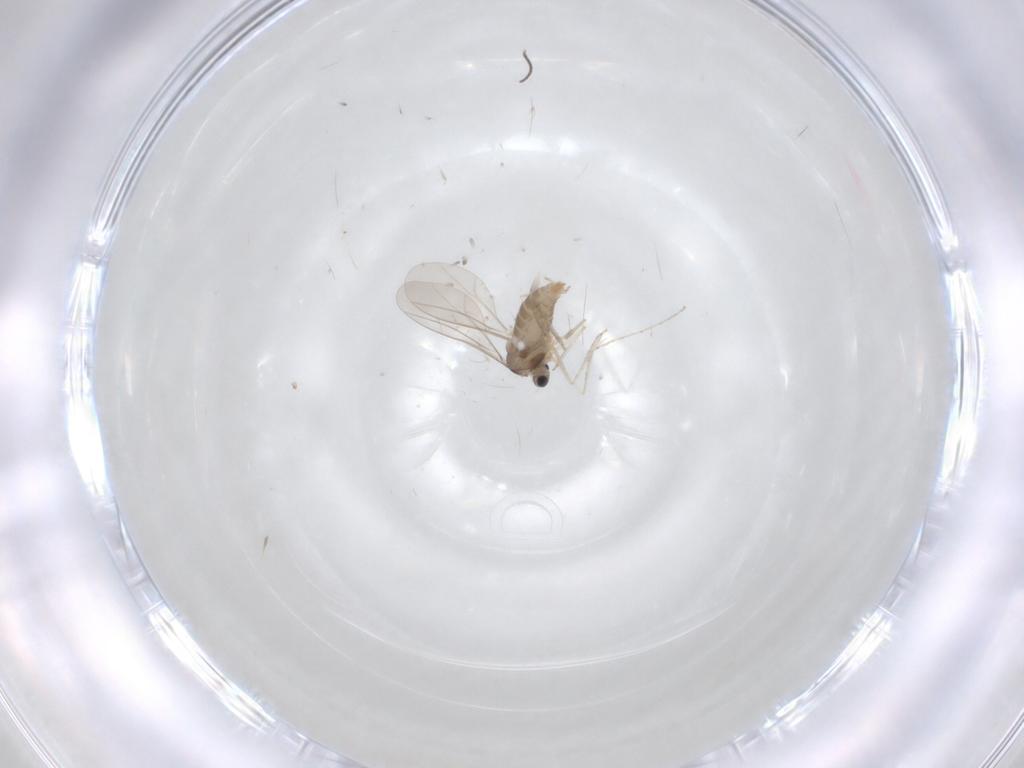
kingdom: Animalia
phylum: Arthropoda
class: Insecta
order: Diptera
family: Cecidomyiidae
